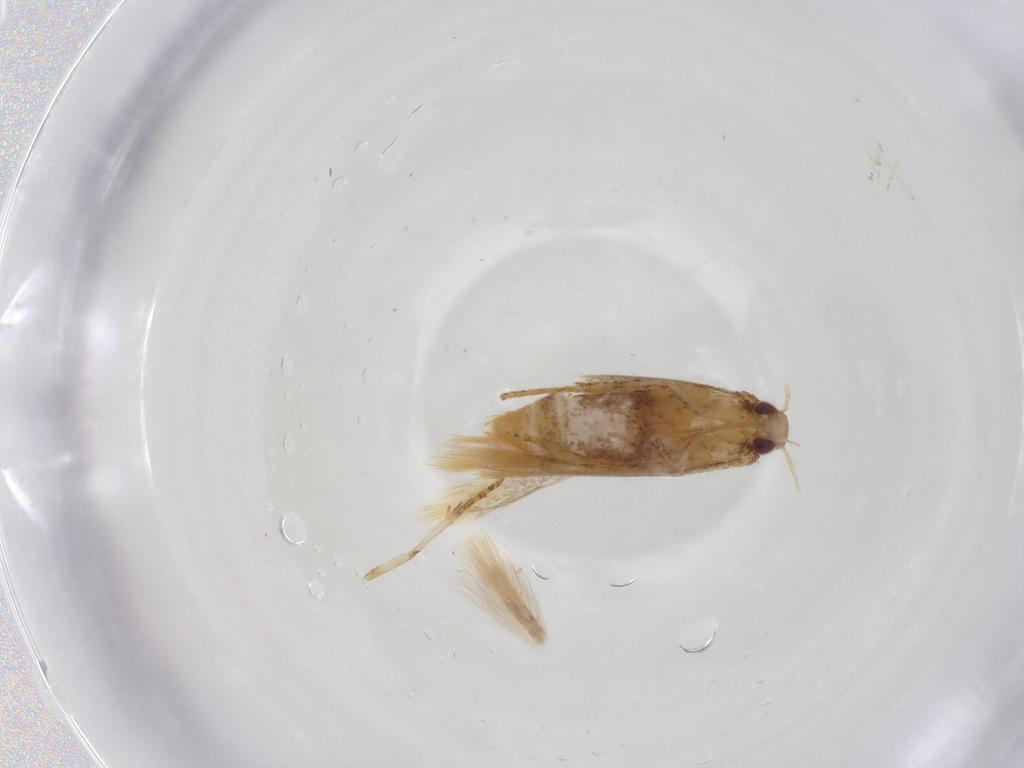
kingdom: Animalia
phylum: Arthropoda
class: Insecta
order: Lepidoptera
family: Gelechiidae
